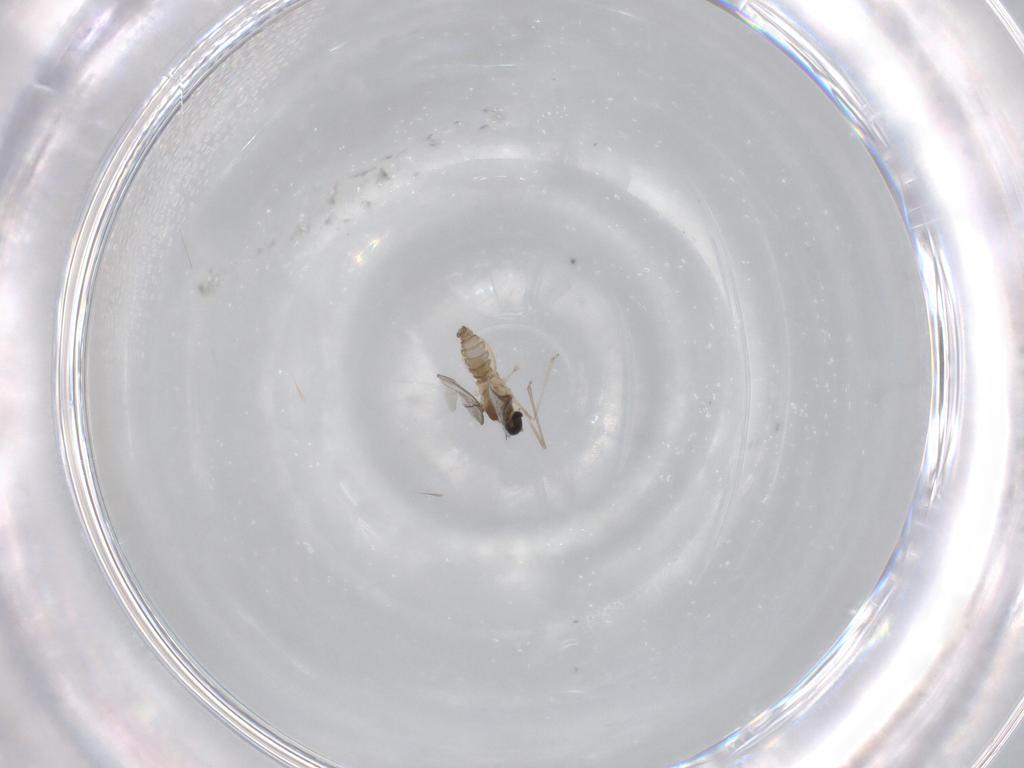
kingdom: Animalia
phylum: Arthropoda
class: Insecta
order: Diptera
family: Cecidomyiidae
